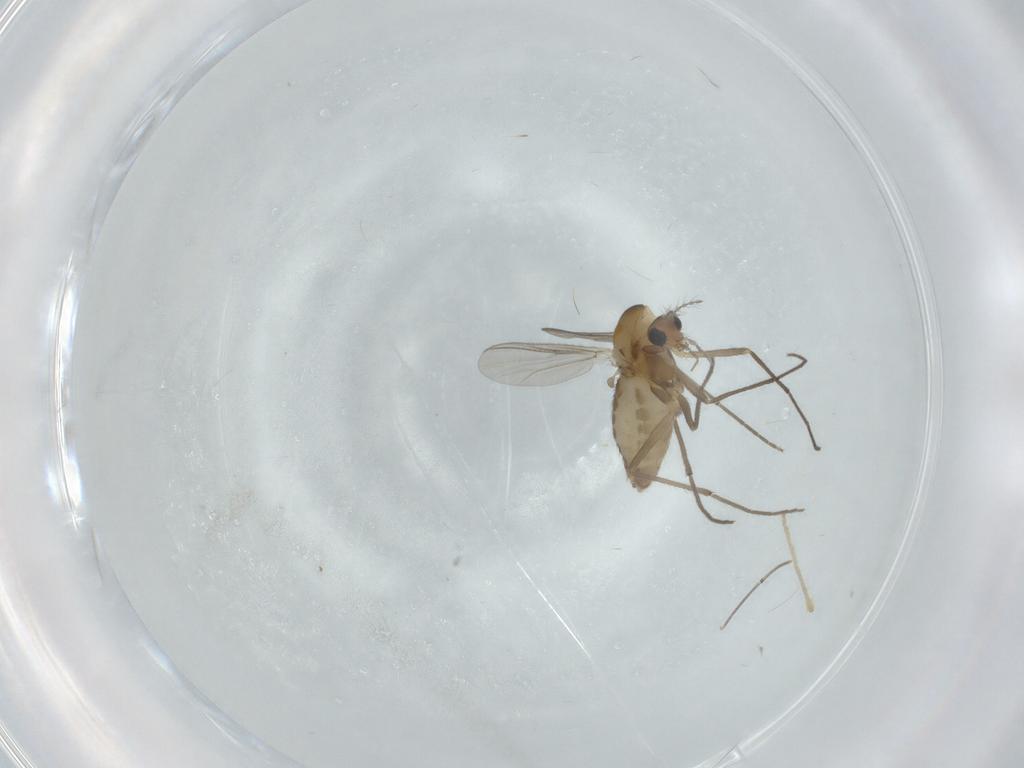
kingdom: Animalia
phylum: Arthropoda
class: Insecta
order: Diptera
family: Chironomidae
